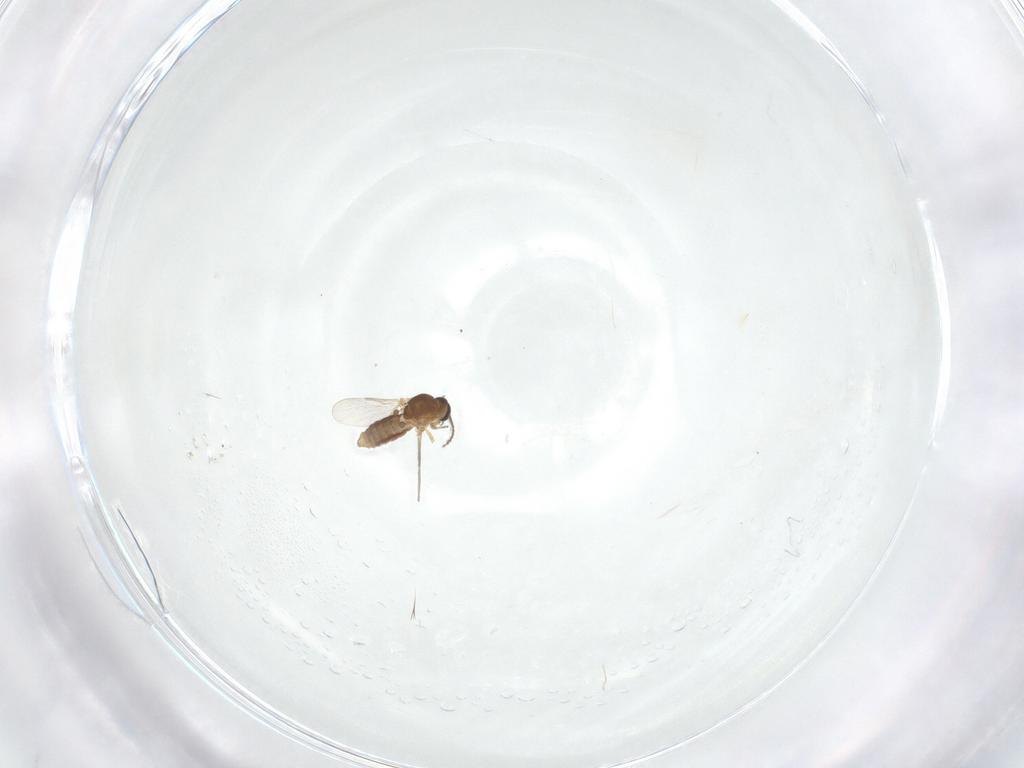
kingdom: Animalia
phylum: Arthropoda
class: Insecta
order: Diptera
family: Ceratopogonidae
